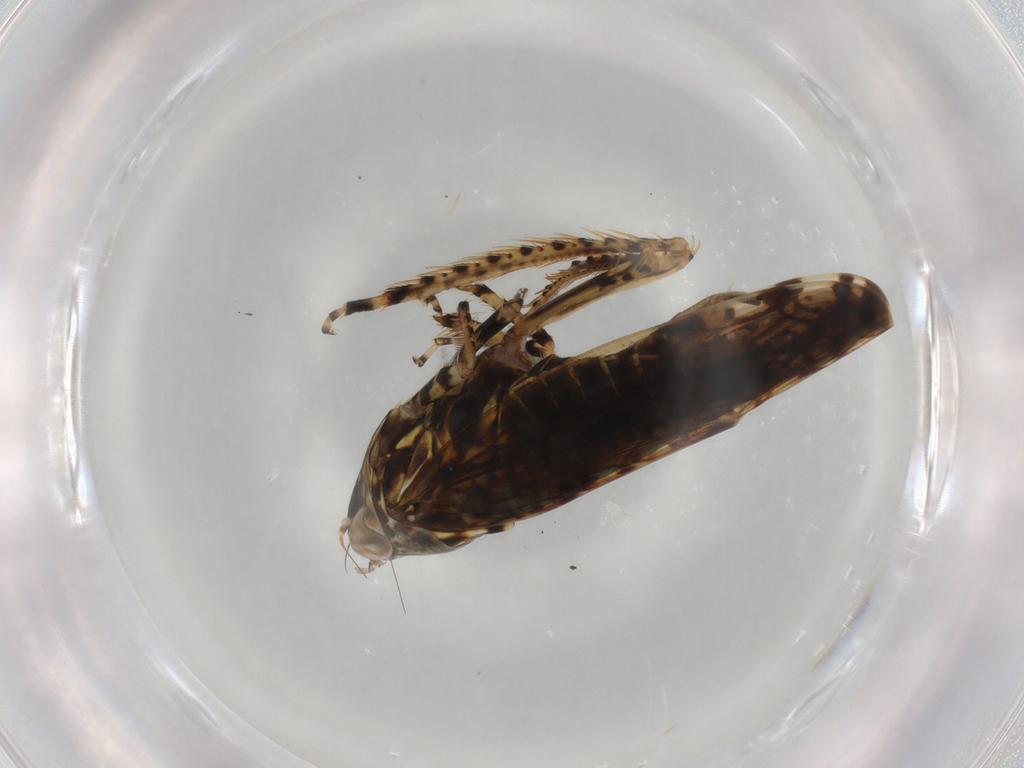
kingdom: Animalia
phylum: Arthropoda
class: Insecta
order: Hemiptera
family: Cicadellidae
